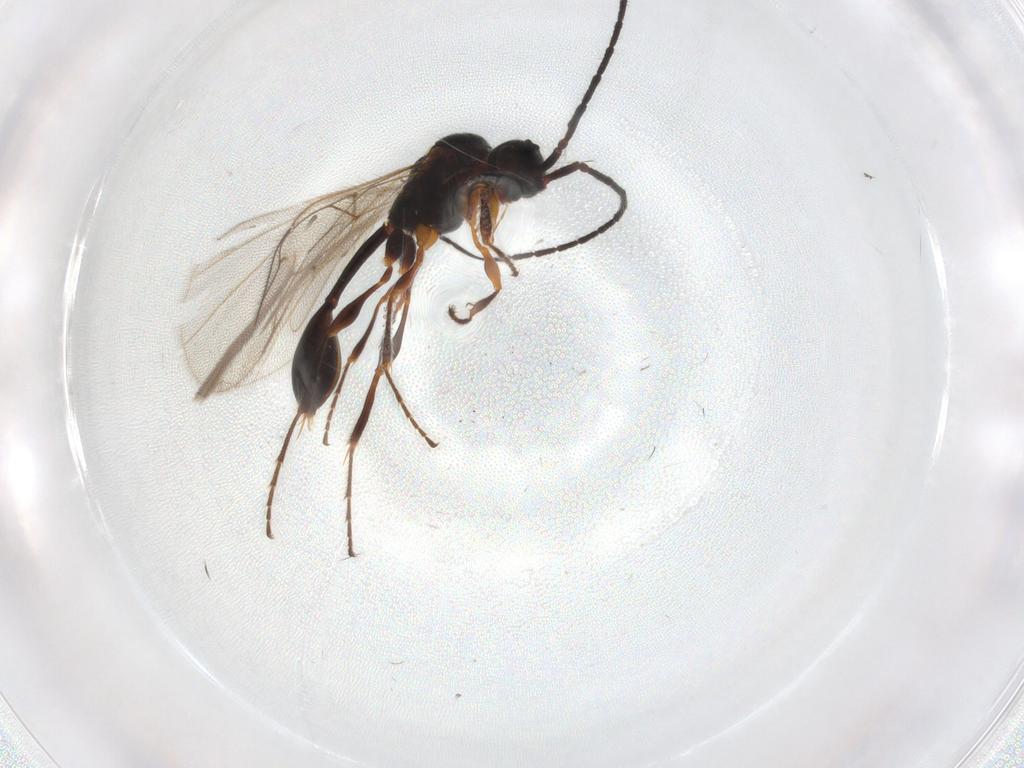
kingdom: Animalia
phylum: Arthropoda
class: Insecta
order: Hymenoptera
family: Diapriidae
